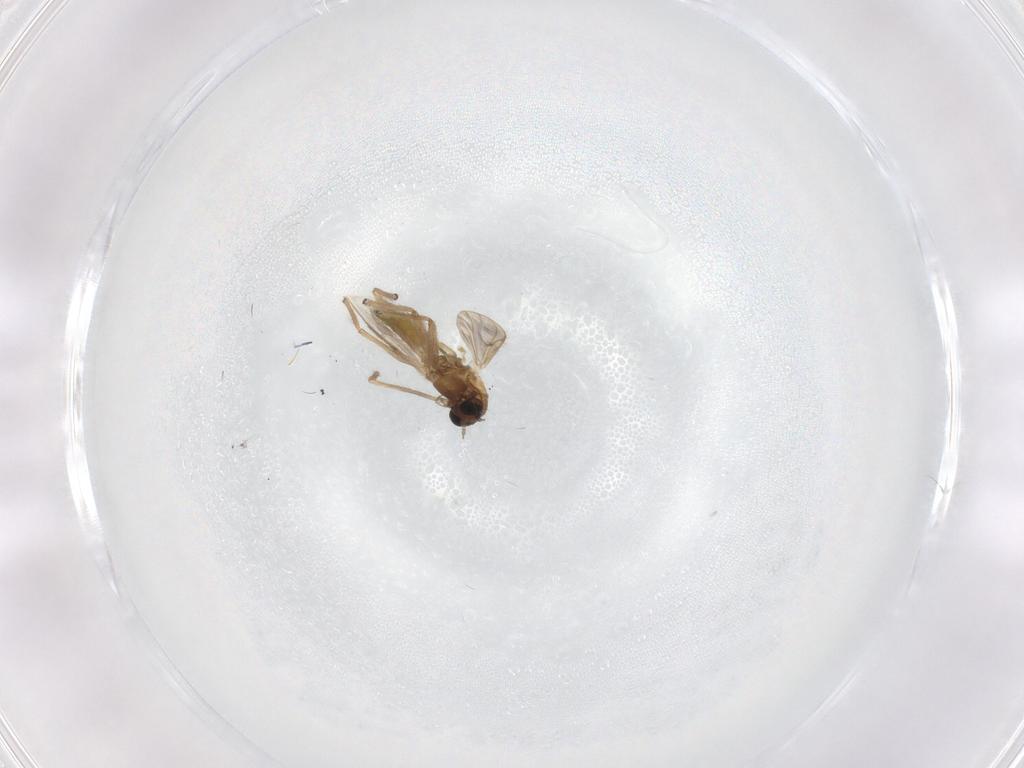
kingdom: Animalia
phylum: Arthropoda
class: Insecta
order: Diptera
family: Chironomidae
